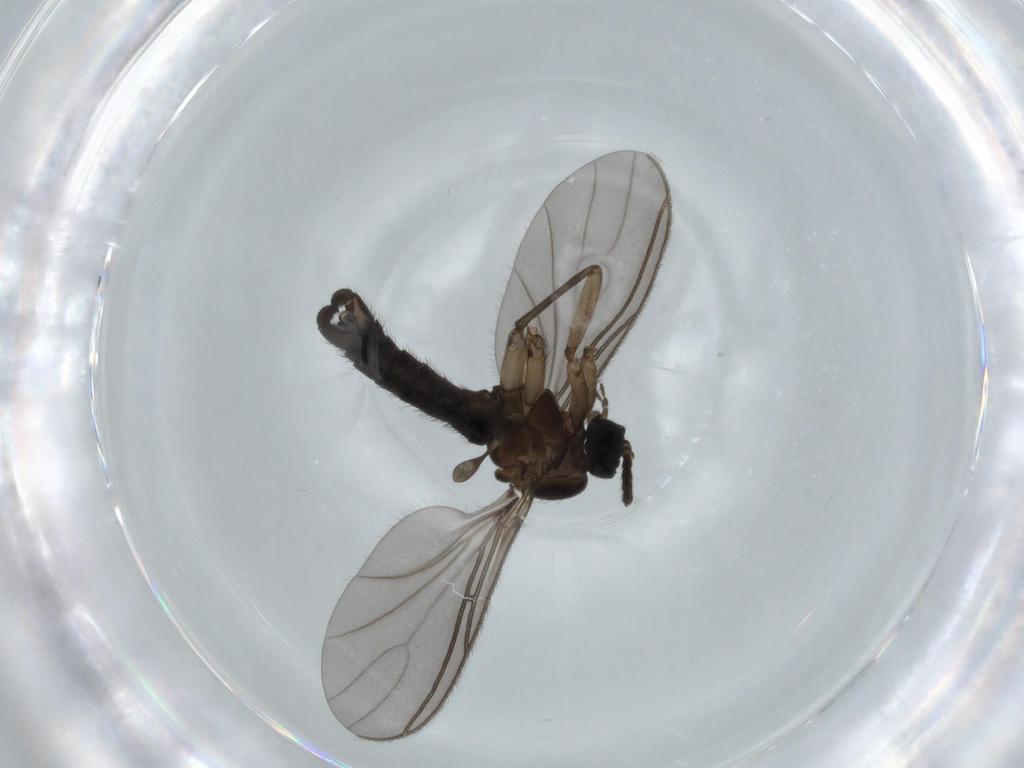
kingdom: Animalia
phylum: Arthropoda
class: Insecta
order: Diptera
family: Sciaridae
